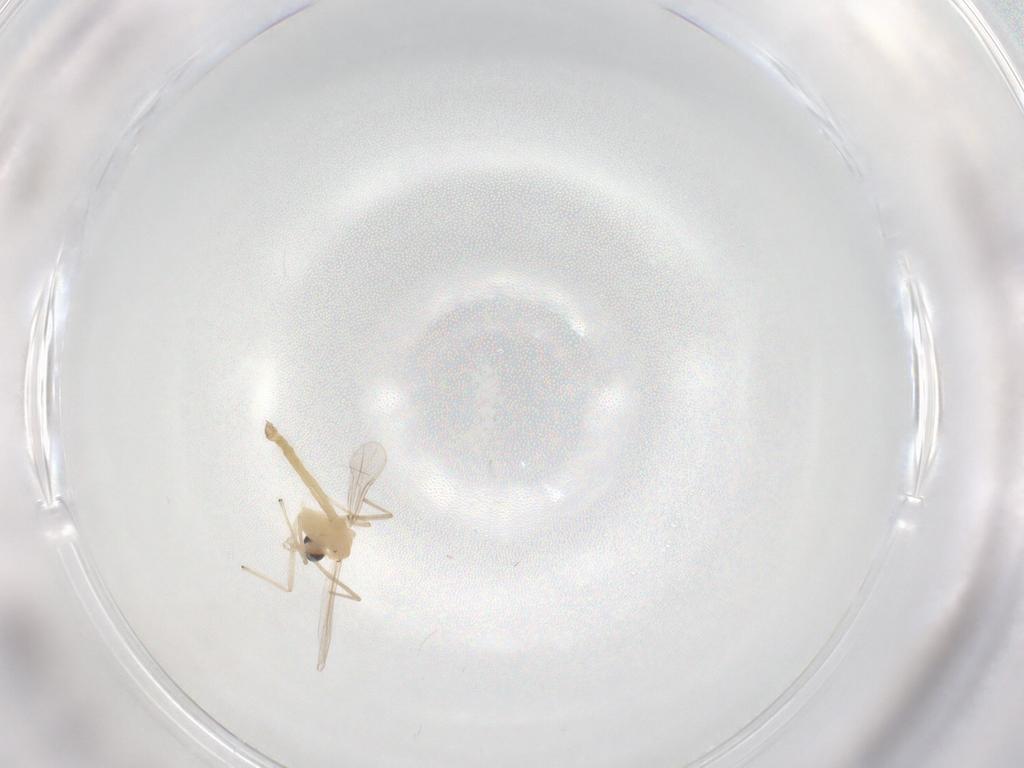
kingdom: Animalia
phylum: Arthropoda
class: Insecta
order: Diptera
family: Chironomidae
